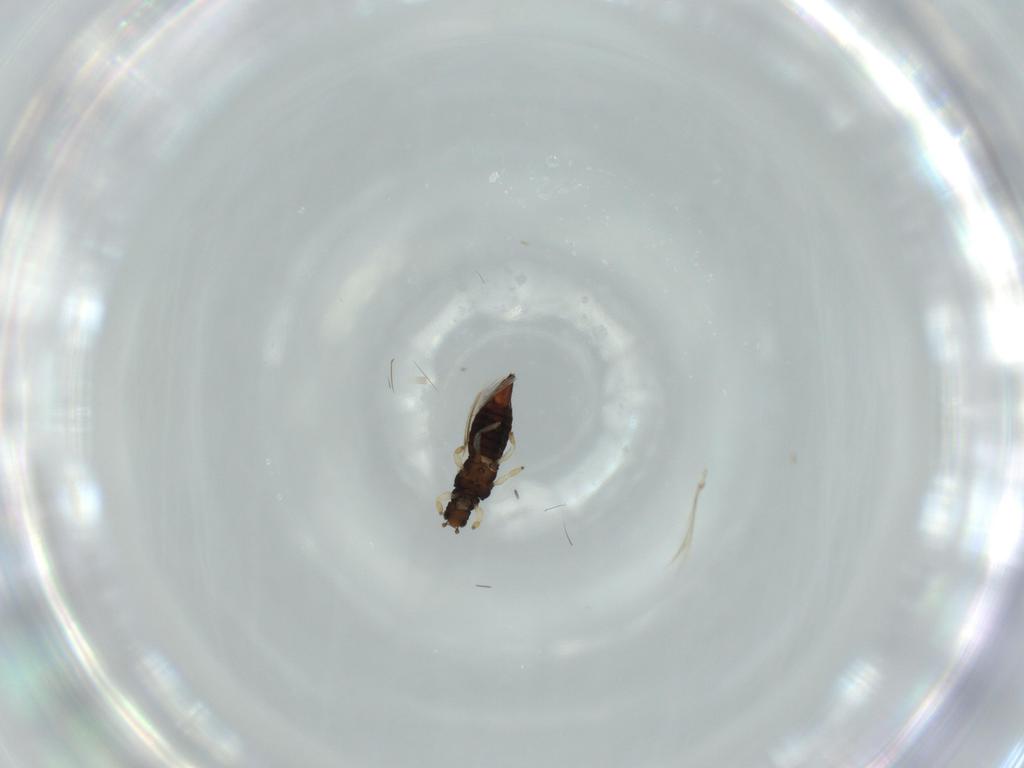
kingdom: Animalia
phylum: Arthropoda
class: Insecta
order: Thysanoptera
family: Thripidae
